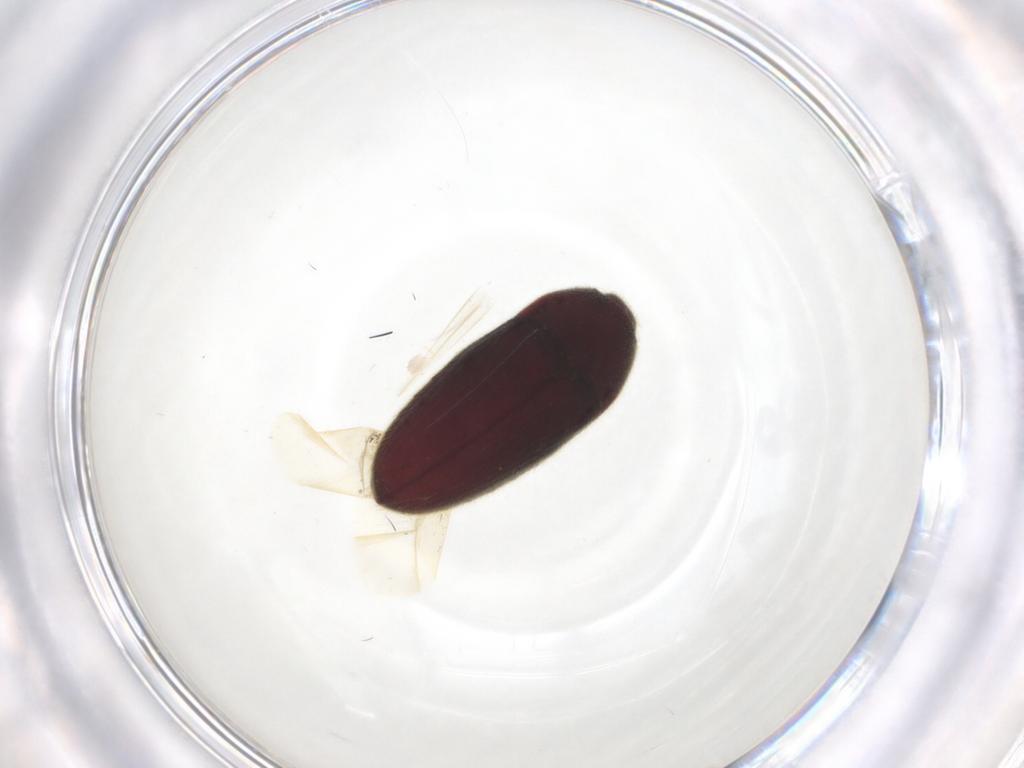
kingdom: Animalia
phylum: Arthropoda
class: Insecta
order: Coleoptera
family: Throscidae
